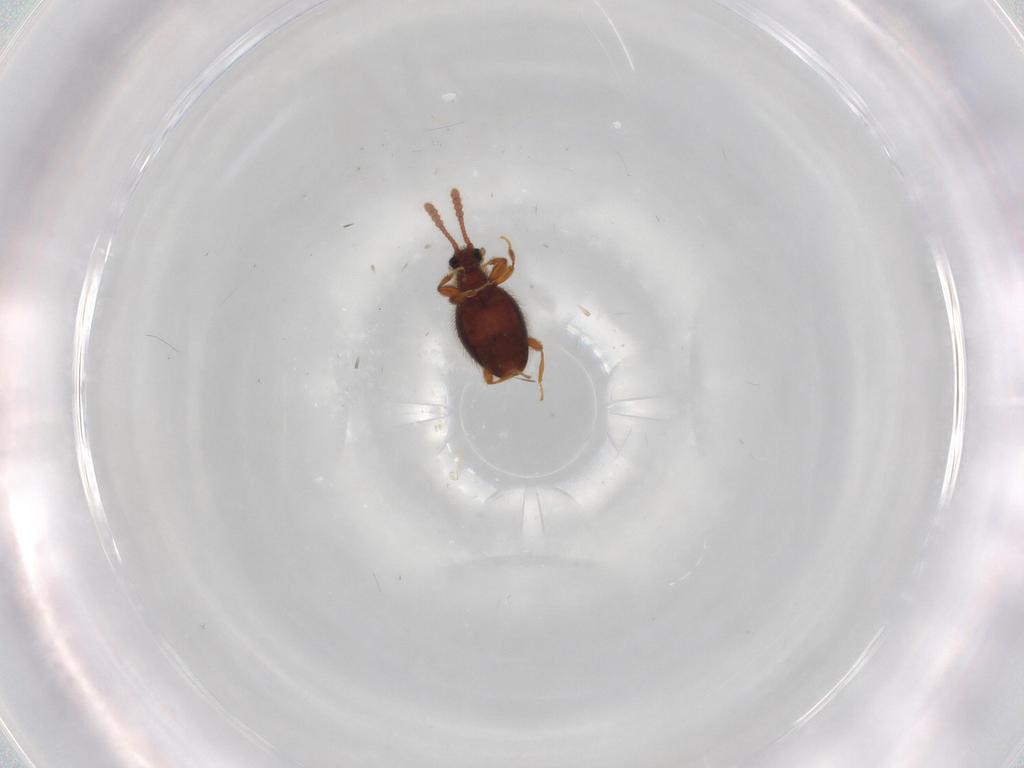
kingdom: Animalia
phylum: Arthropoda
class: Insecta
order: Coleoptera
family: Staphylinidae
